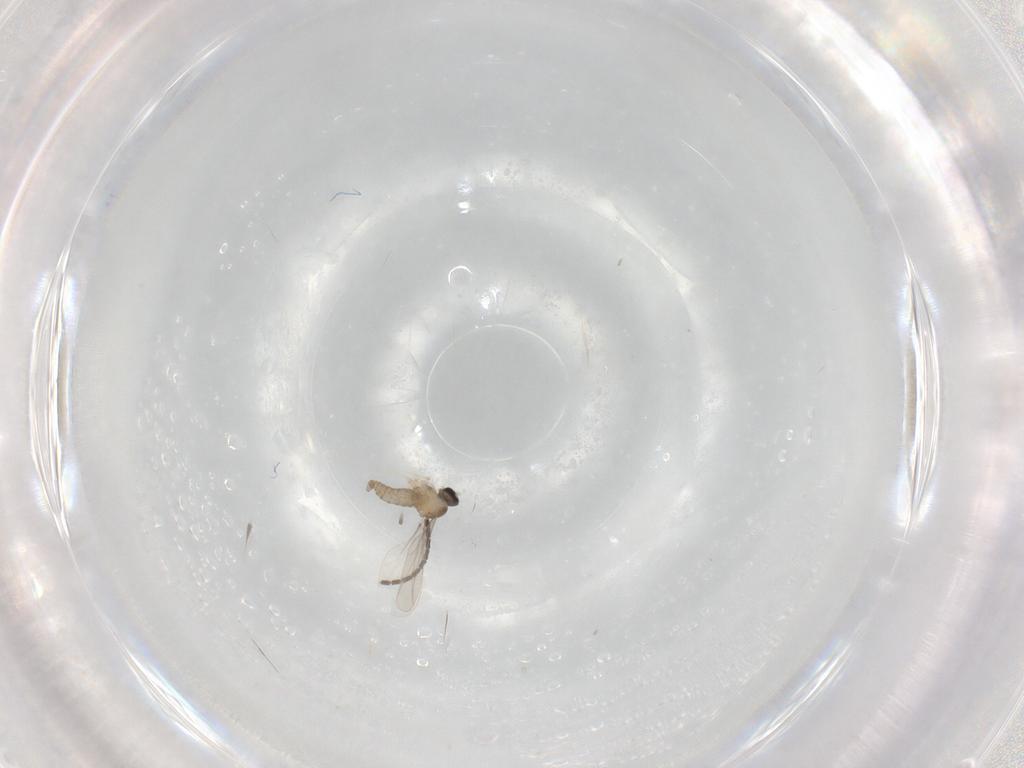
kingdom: Animalia
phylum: Arthropoda
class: Insecta
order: Diptera
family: Cecidomyiidae
